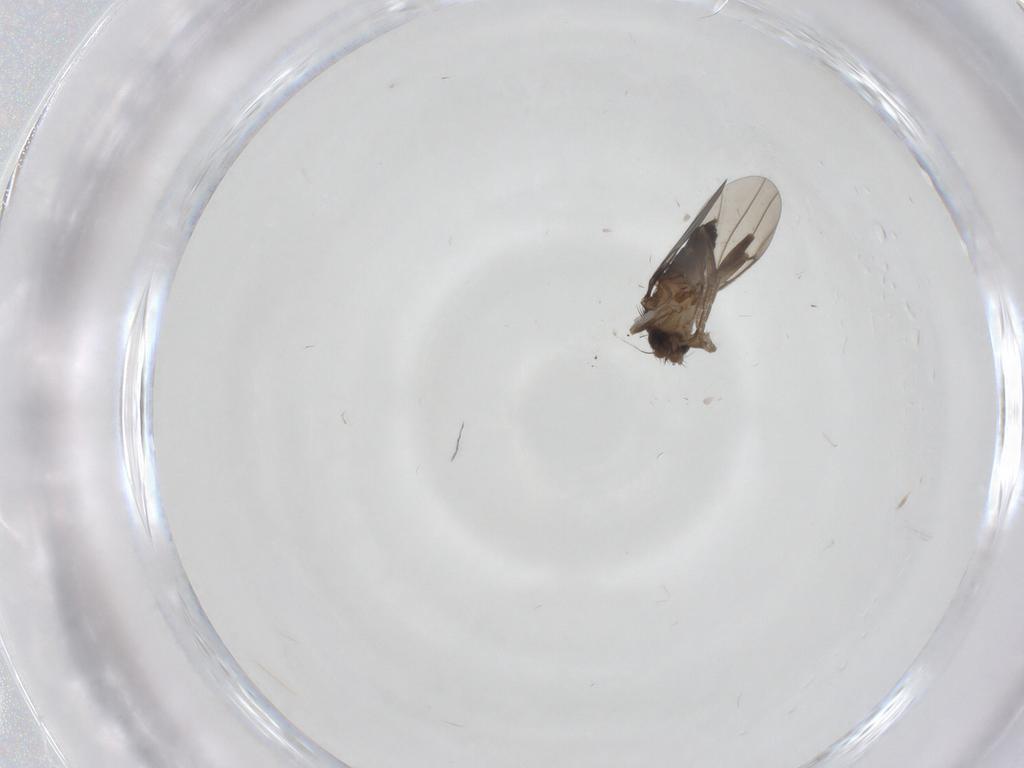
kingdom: Animalia
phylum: Arthropoda
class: Insecta
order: Diptera
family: Phoridae
